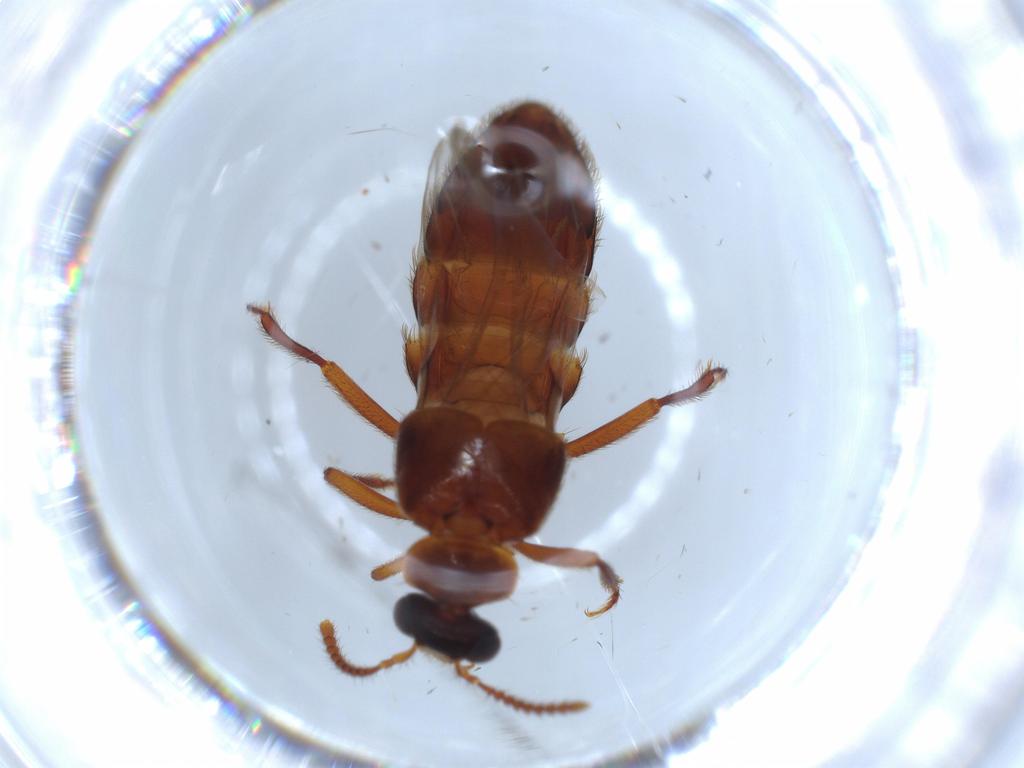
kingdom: Animalia
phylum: Arthropoda
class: Insecta
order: Coleoptera
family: Staphylinidae
